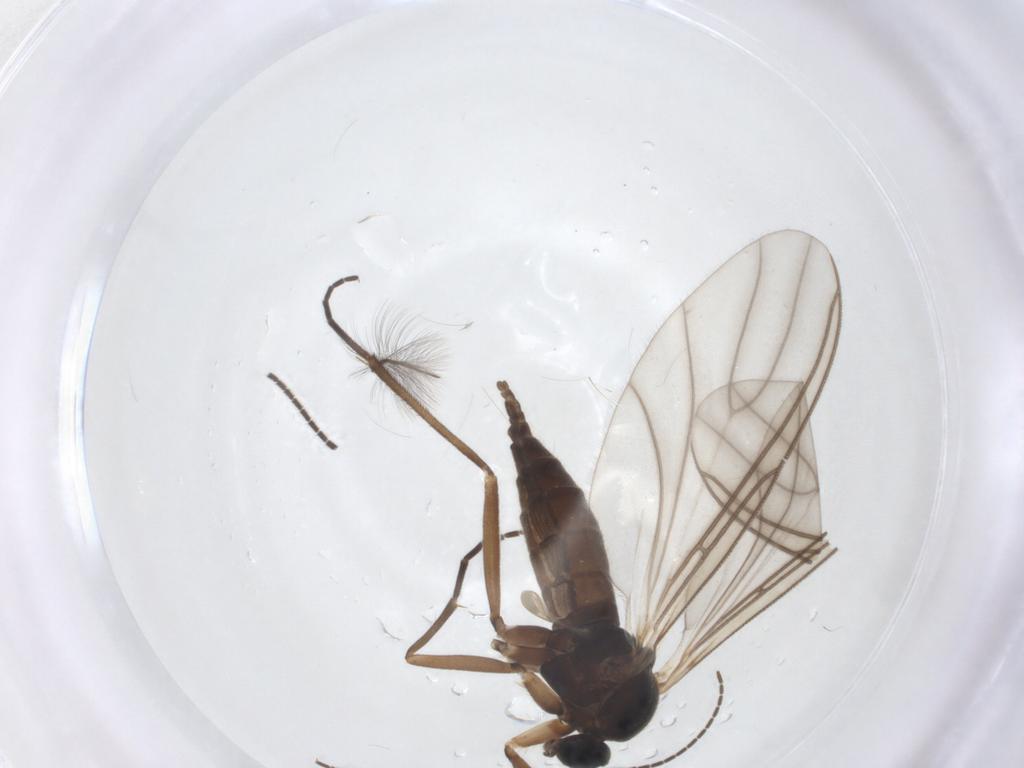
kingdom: Animalia
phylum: Arthropoda
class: Insecta
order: Diptera
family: Sciaridae
